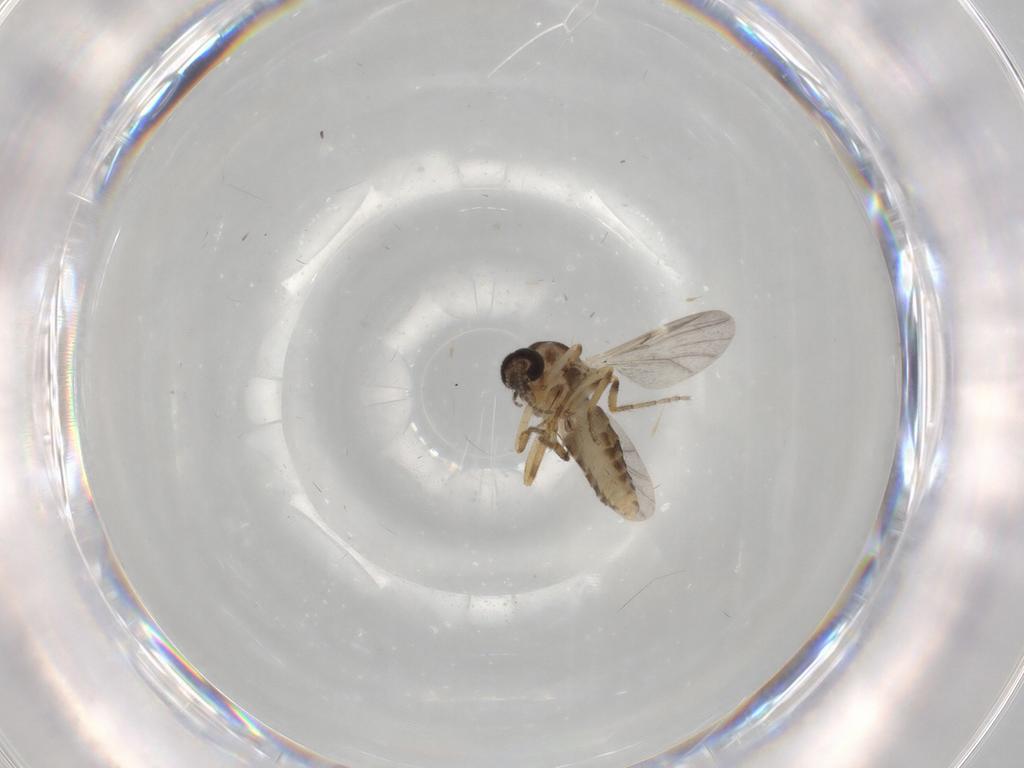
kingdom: Animalia
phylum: Arthropoda
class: Insecta
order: Diptera
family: Ceratopogonidae
